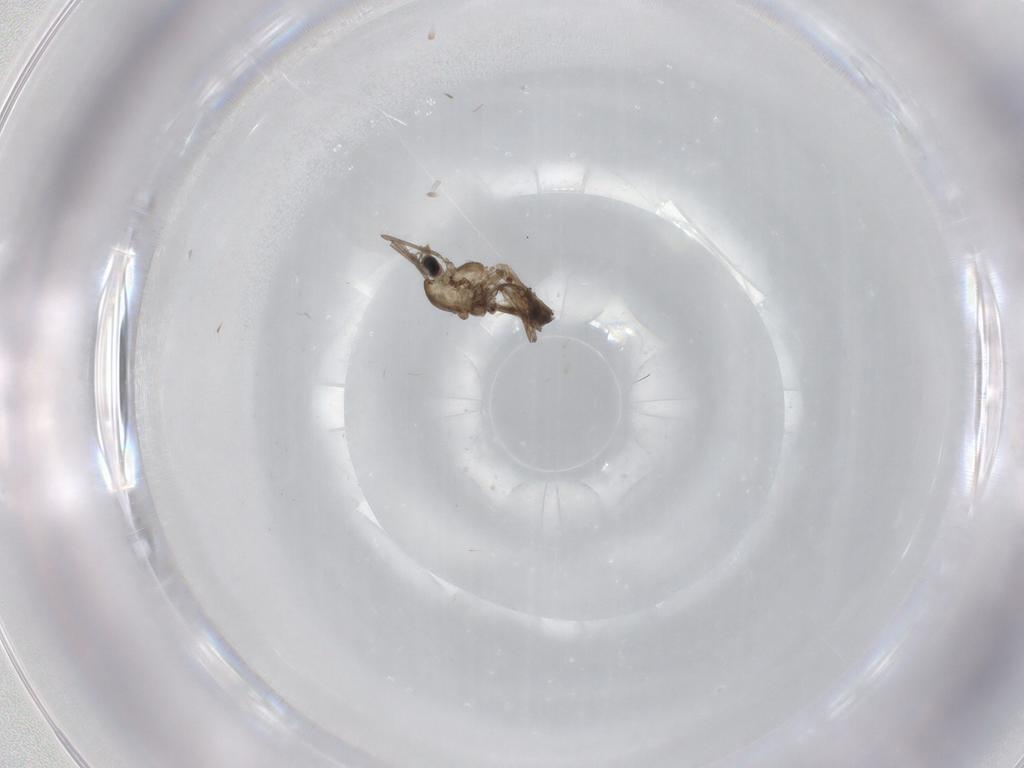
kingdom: Animalia
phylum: Arthropoda
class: Insecta
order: Diptera
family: Chironomidae
